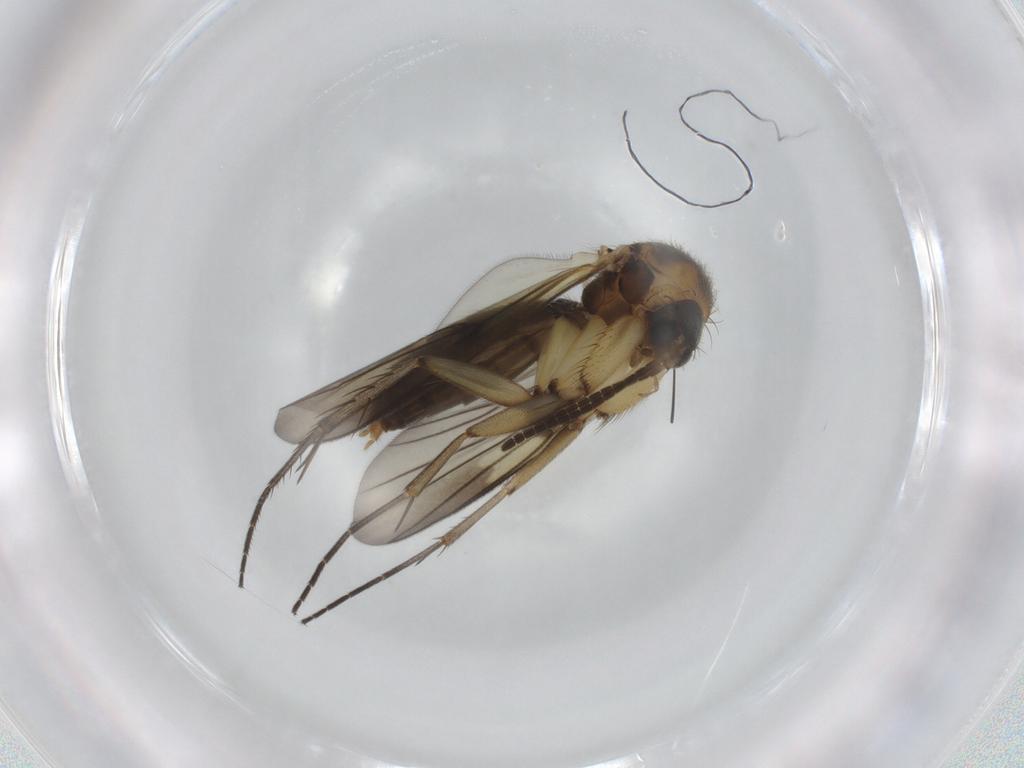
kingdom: Animalia
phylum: Arthropoda
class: Insecta
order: Diptera
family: Mycetophilidae
